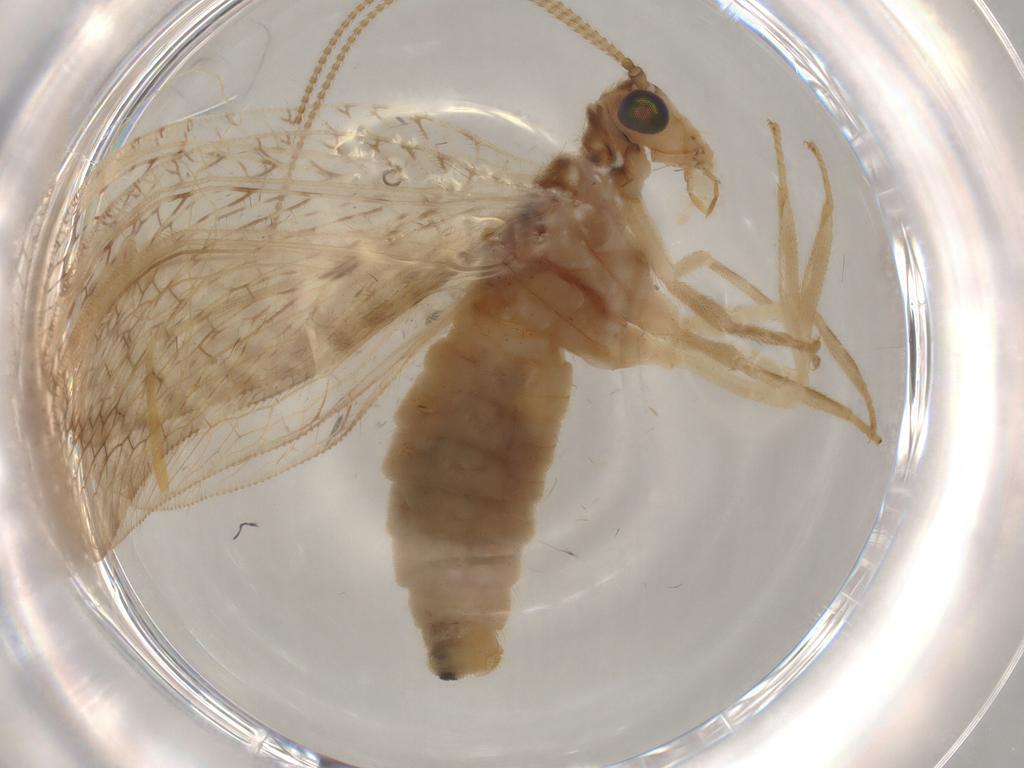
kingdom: Animalia
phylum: Arthropoda
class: Insecta
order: Neuroptera
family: Hemerobiidae
